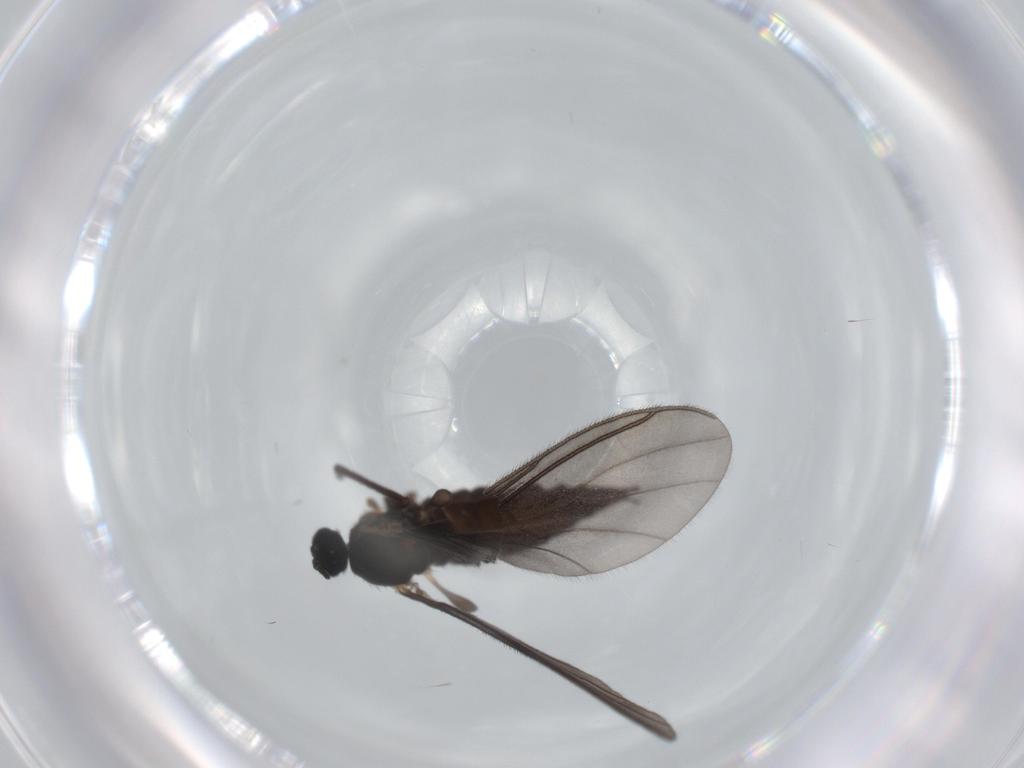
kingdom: Animalia
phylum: Arthropoda
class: Insecta
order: Diptera
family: Sciaridae
